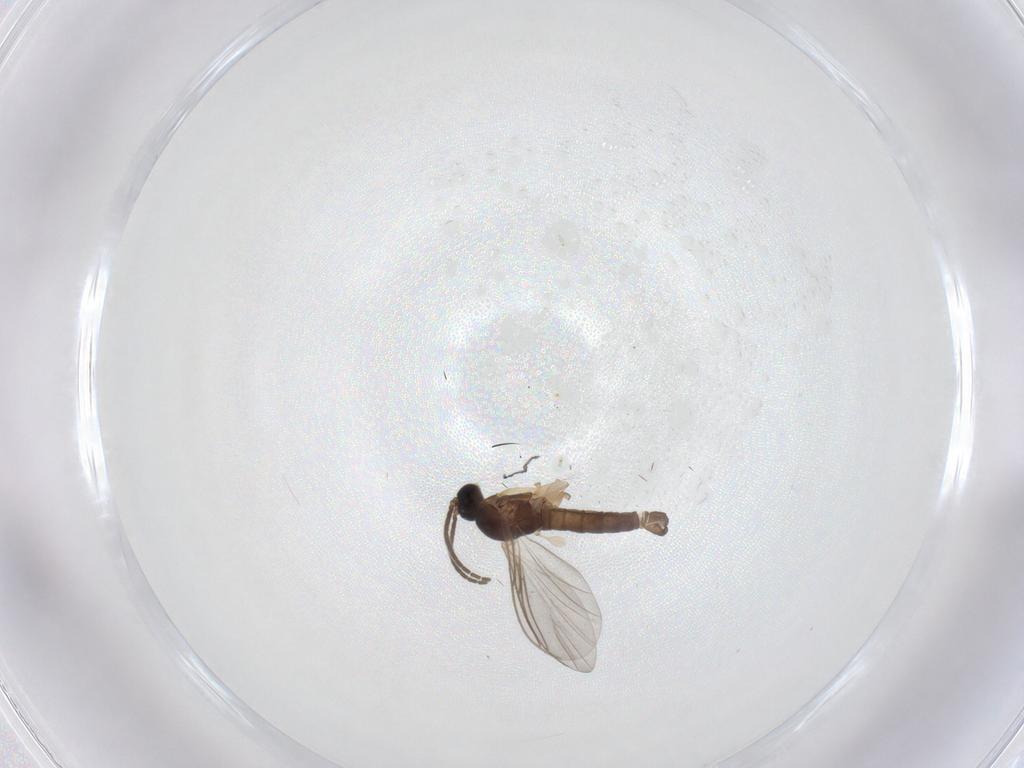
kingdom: Animalia
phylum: Arthropoda
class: Insecta
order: Diptera
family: Sciaridae
